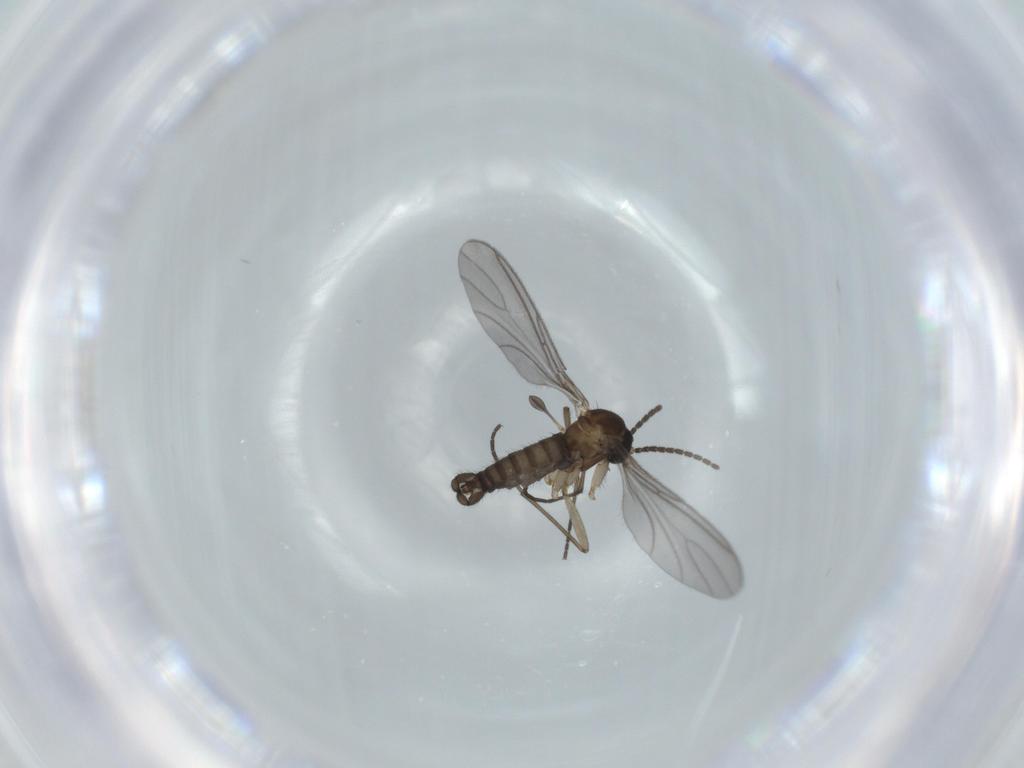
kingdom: Animalia
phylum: Arthropoda
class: Insecta
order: Diptera
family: Sciaridae
